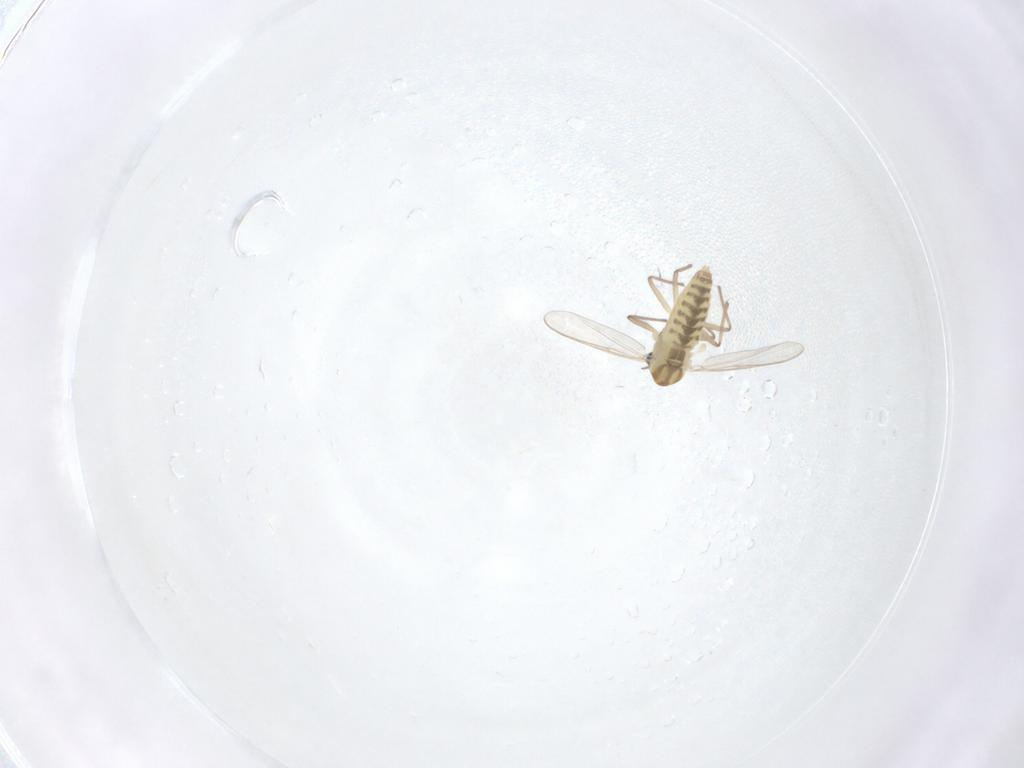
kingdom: Animalia
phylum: Arthropoda
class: Insecta
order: Diptera
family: Chironomidae
